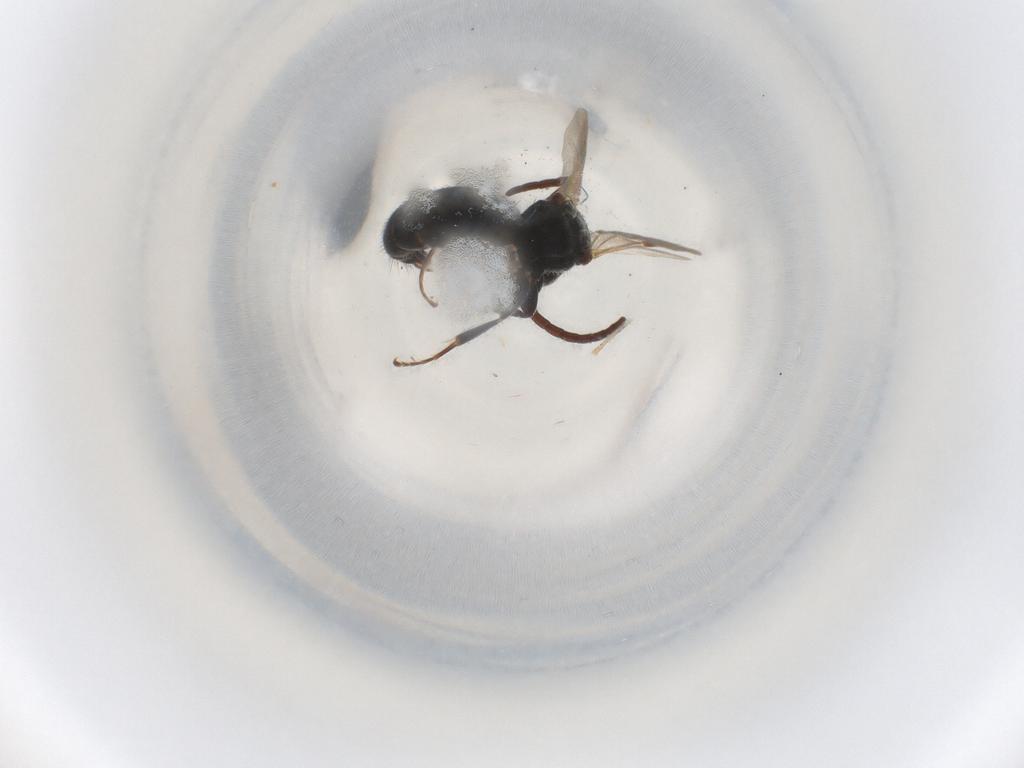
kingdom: Animalia
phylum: Arthropoda
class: Insecta
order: Hymenoptera
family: Bethylidae
